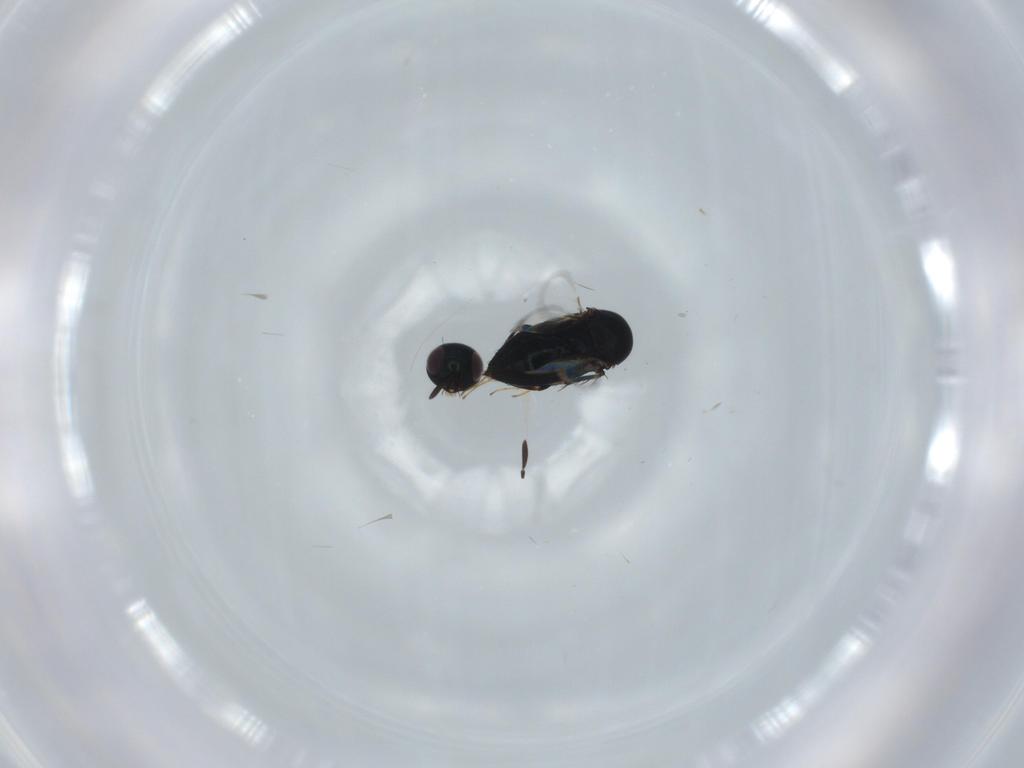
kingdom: Animalia
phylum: Arthropoda
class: Insecta
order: Hymenoptera
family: Signiphoridae
